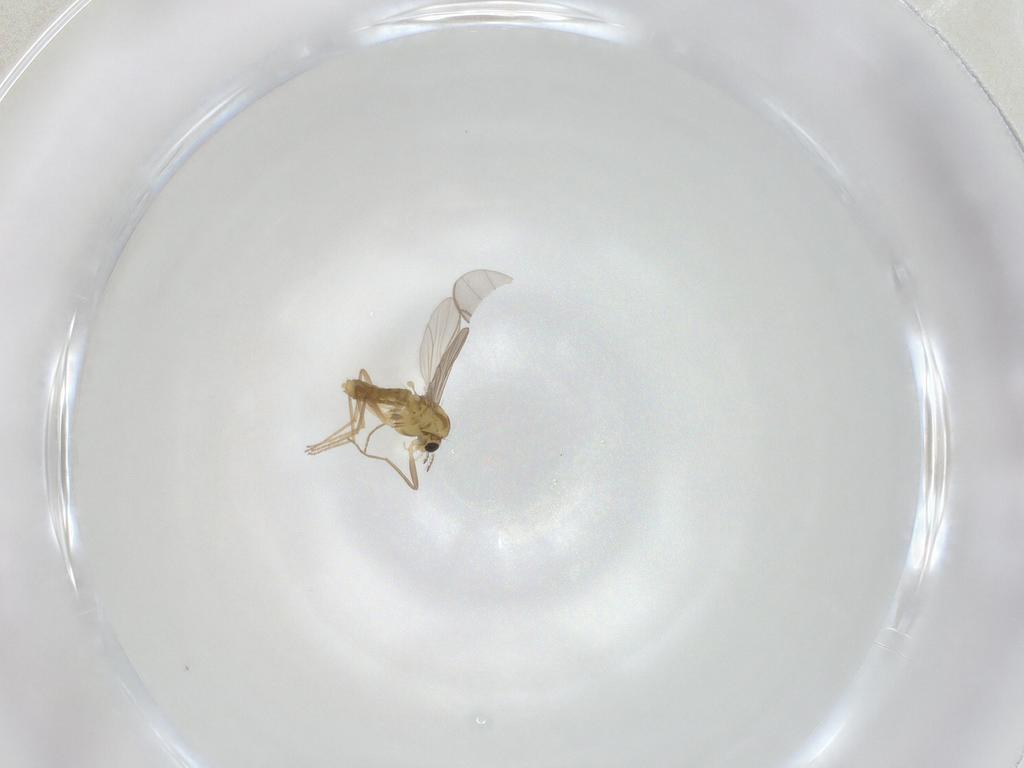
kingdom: Animalia
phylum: Arthropoda
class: Insecta
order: Diptera
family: Chironomidae
